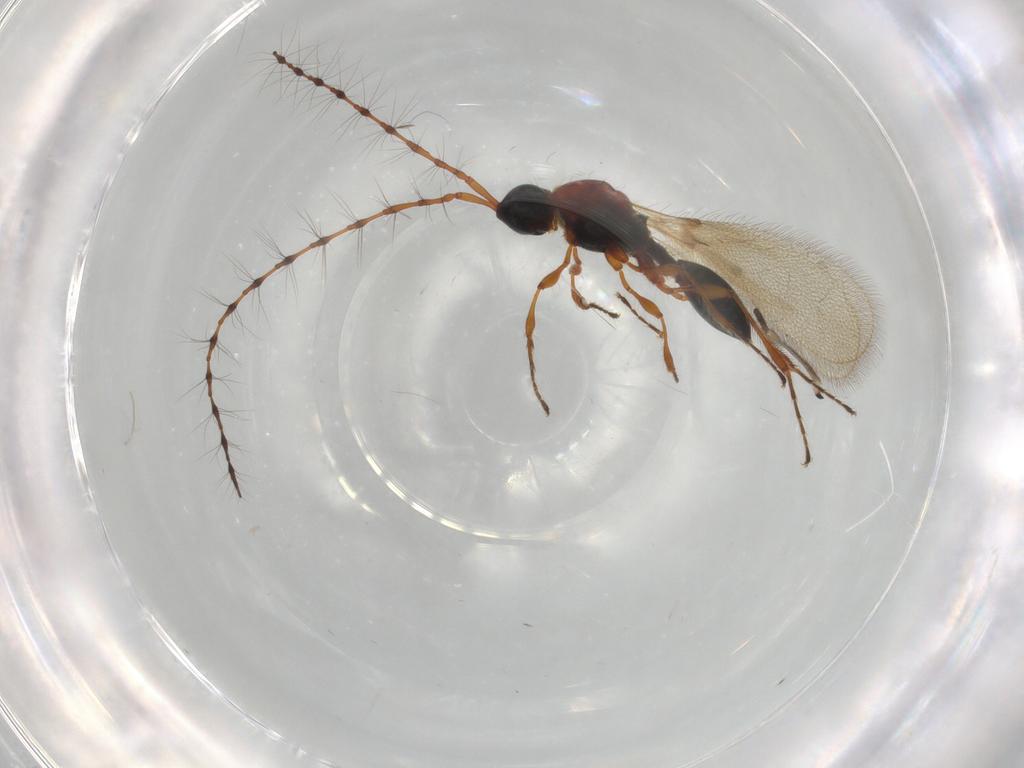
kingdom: Animalia
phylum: Arthropoda
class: Insecta
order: Hymenoptera
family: Diapriidae
